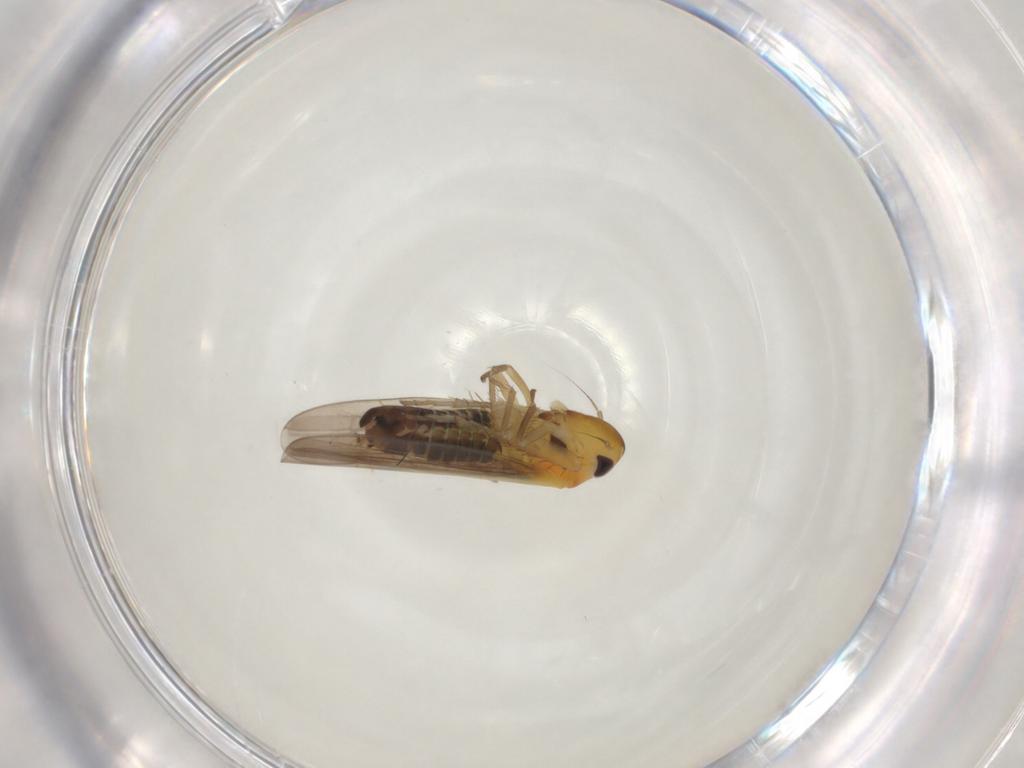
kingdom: Animalia
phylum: Arthropoda
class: Insecta
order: Hemiptera
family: Cicadellidae
